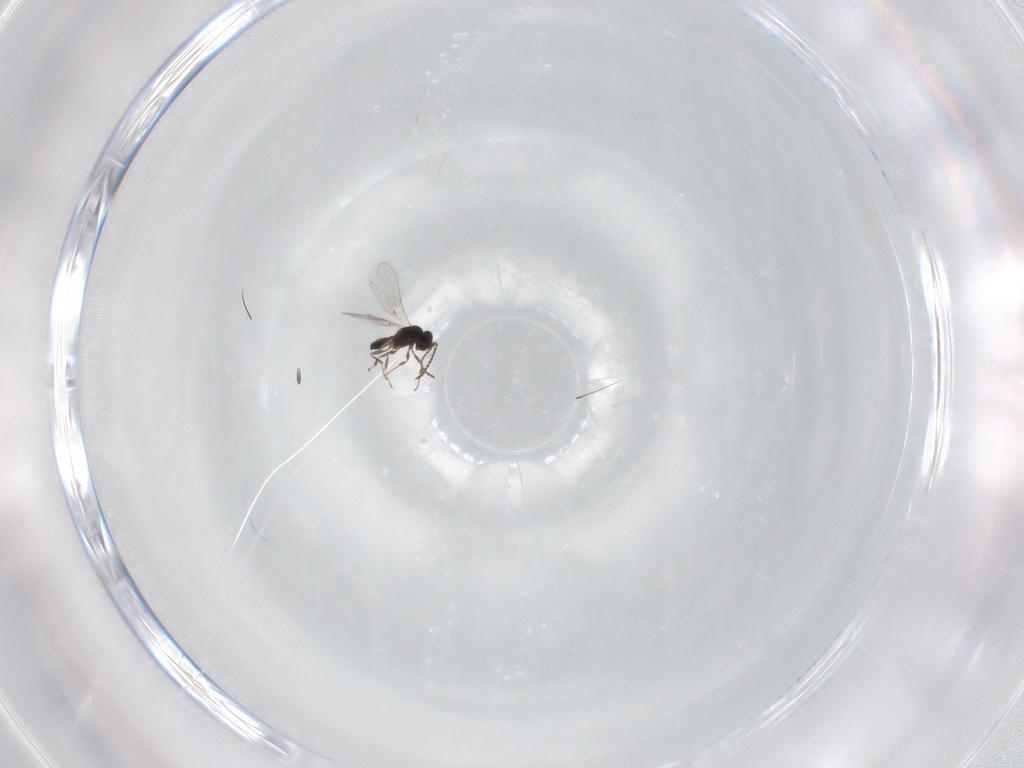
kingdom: Animalia
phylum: Arthropoda
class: Insecta
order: Hymenoptera
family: Scelionidae
